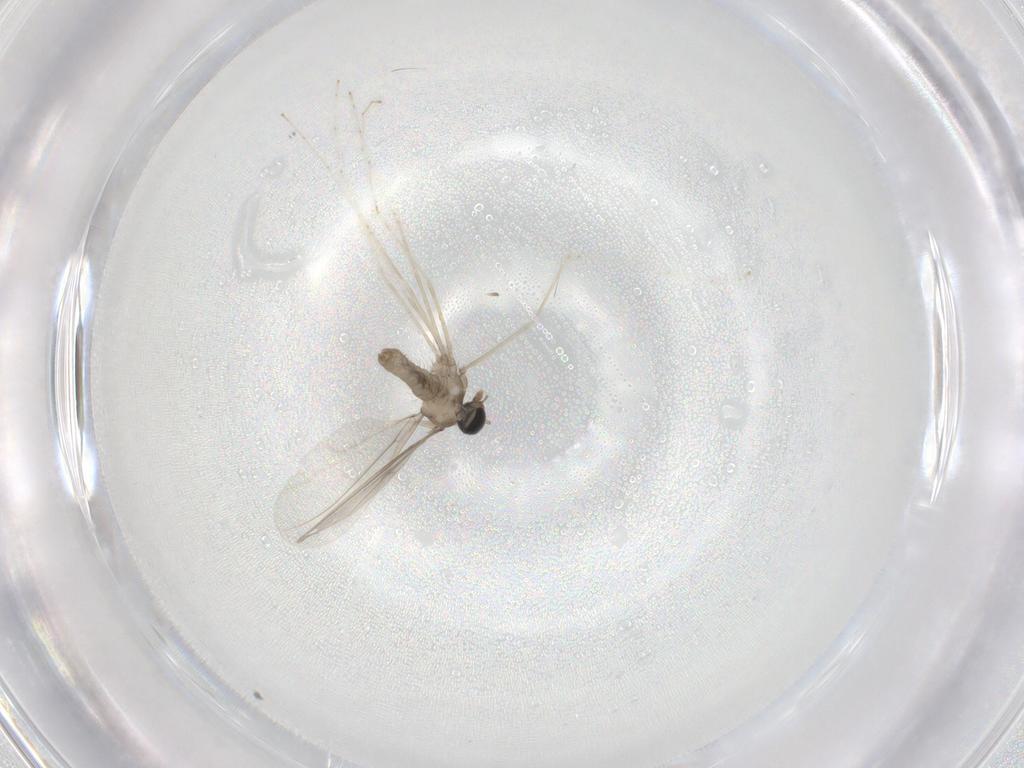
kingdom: Animalia
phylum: Arthropoda
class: Insecta
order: Diptera
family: Cecidomyiidae
